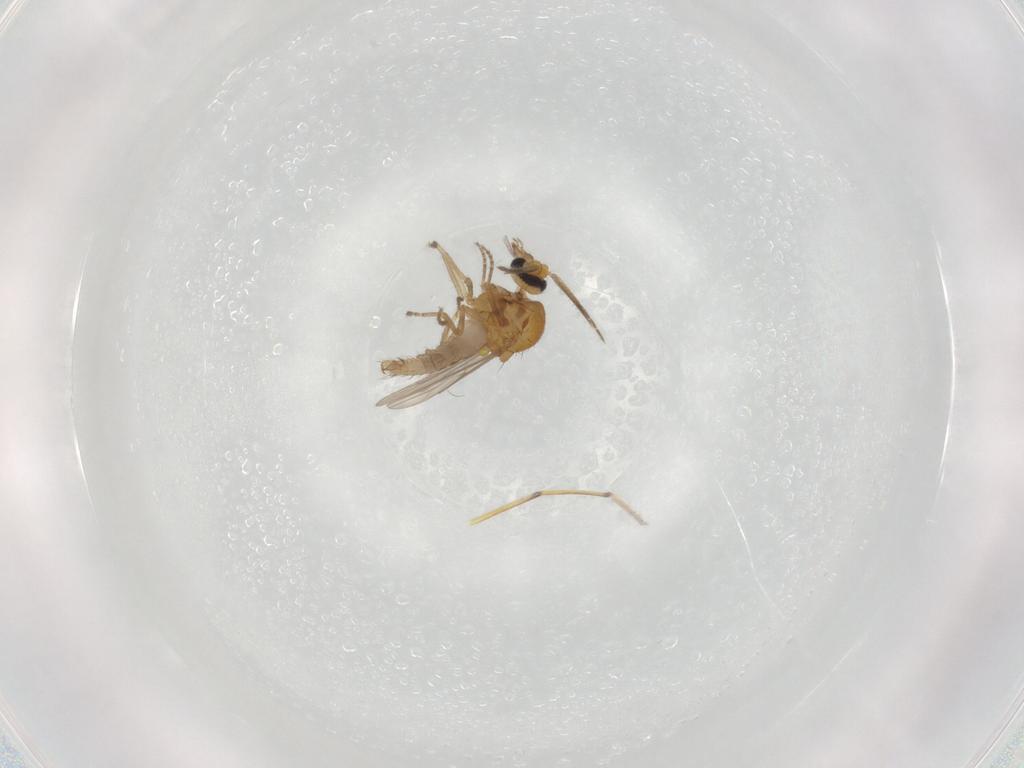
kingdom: Animalia
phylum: Arthropoda
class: Insecta
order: Diptera
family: Ceratopogonidae
